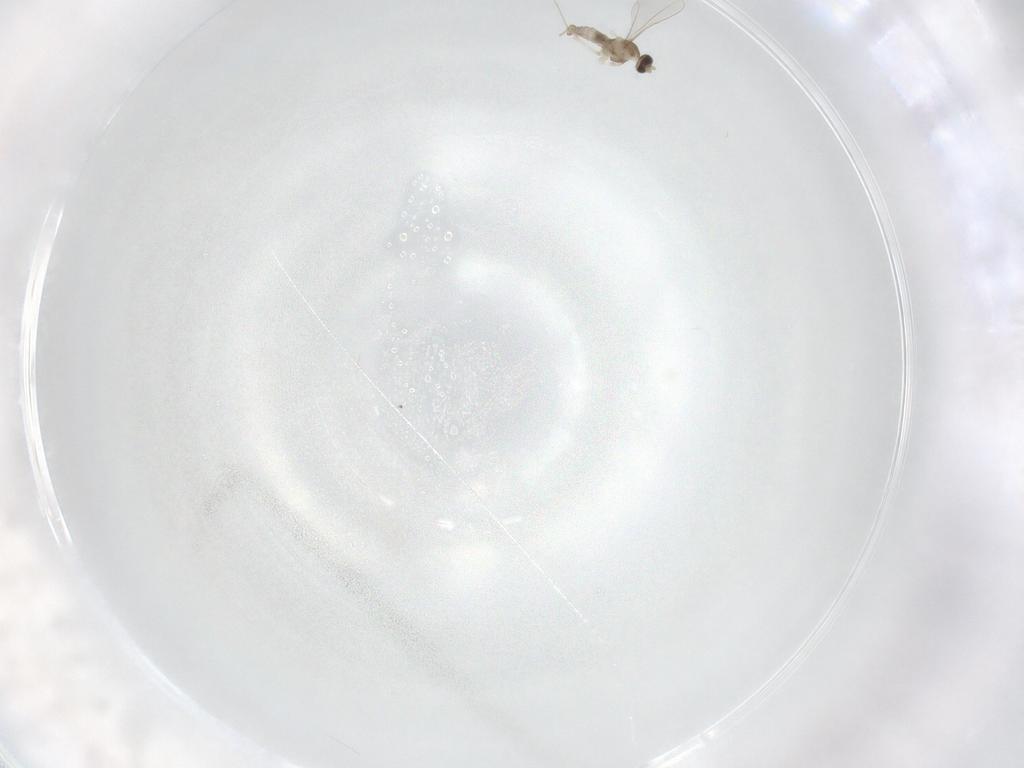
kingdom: Animalia
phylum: Arthropoda
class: Insecta
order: Diptera
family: Cecidomyiidae
